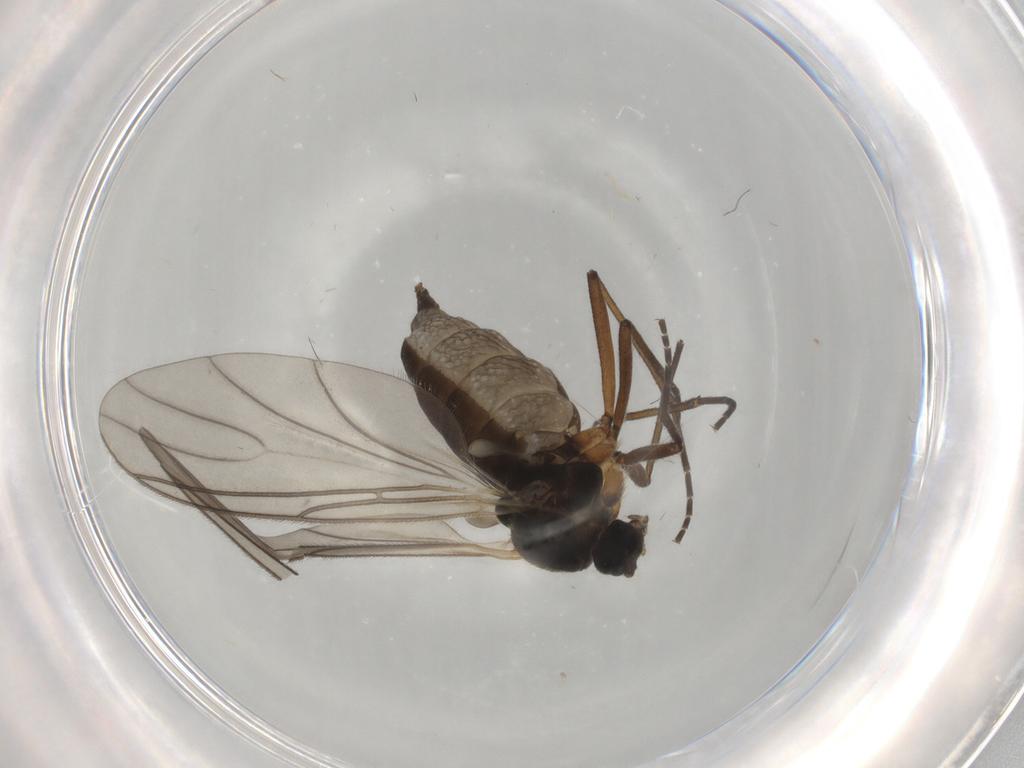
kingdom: Animalia
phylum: Arthropoda
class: Insecta
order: Diptera
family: Sciaridae
